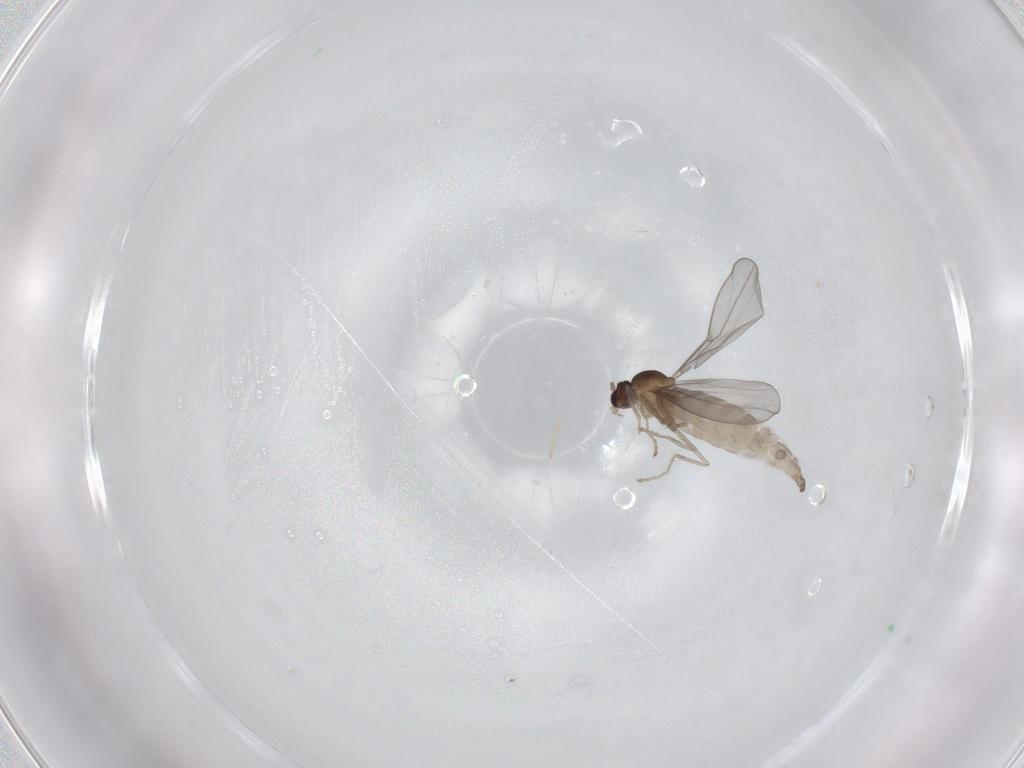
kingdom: Animalia
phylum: Arthropoda
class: Insecta
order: Diptera
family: Cecidomyiidae
